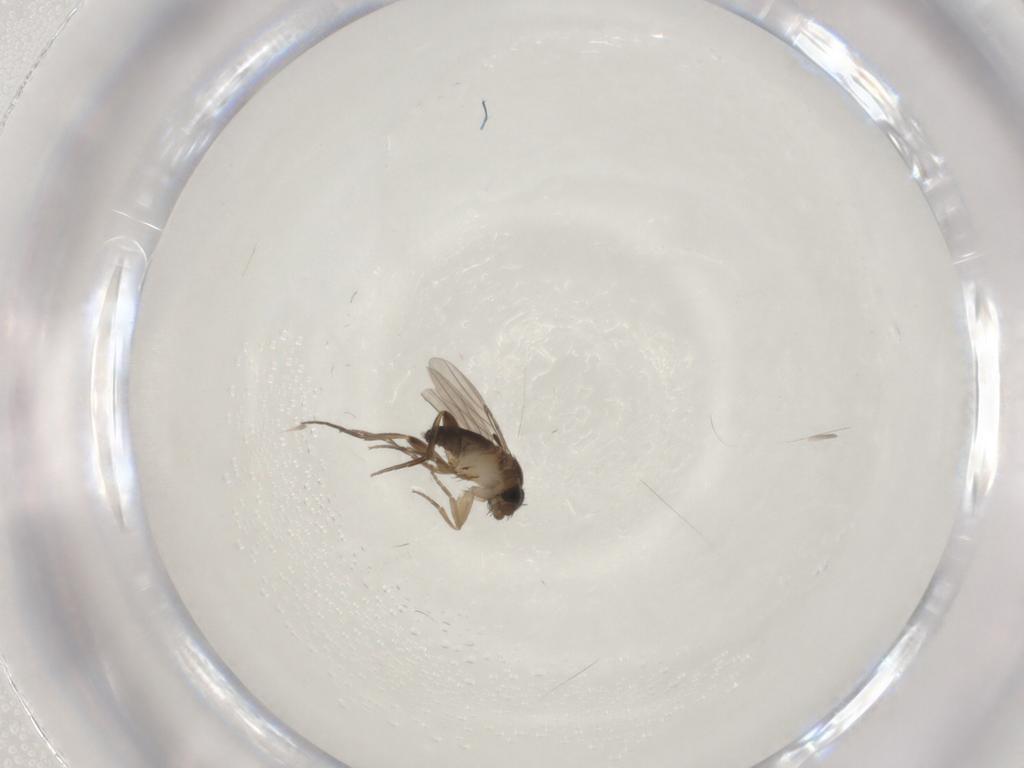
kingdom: Animalia
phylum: Arthropoda
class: Insecta
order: Diptera
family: Phoridae
